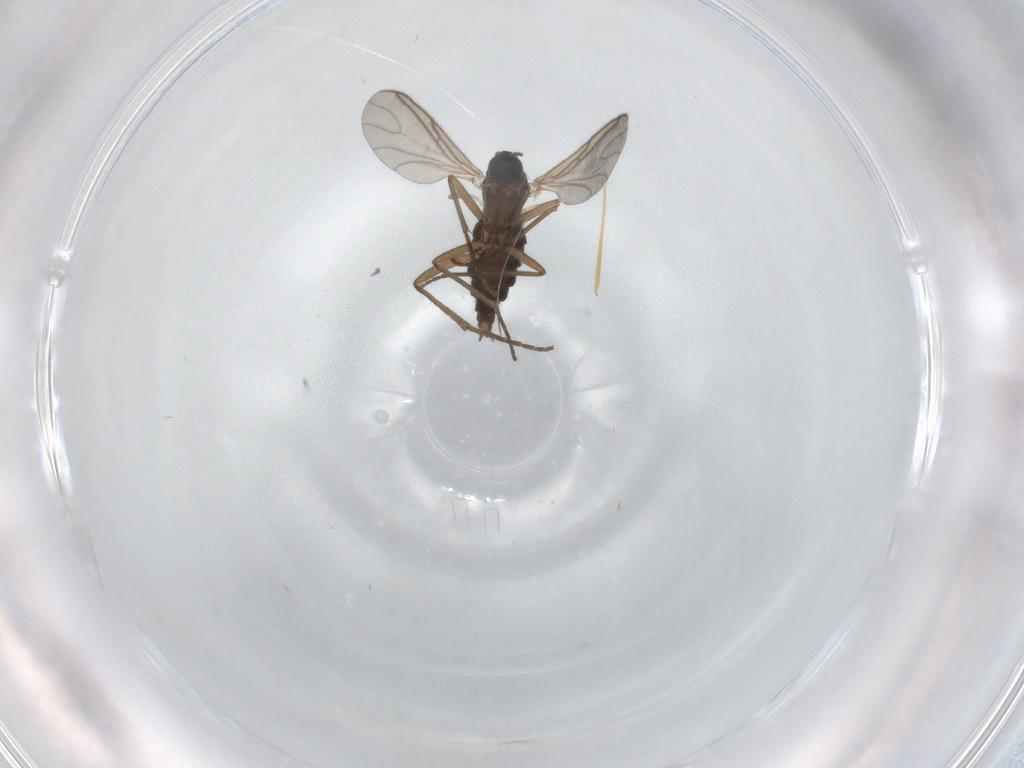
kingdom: Animalia
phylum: Arthropoda
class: Insecta
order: Diptera
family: Sciaridae
